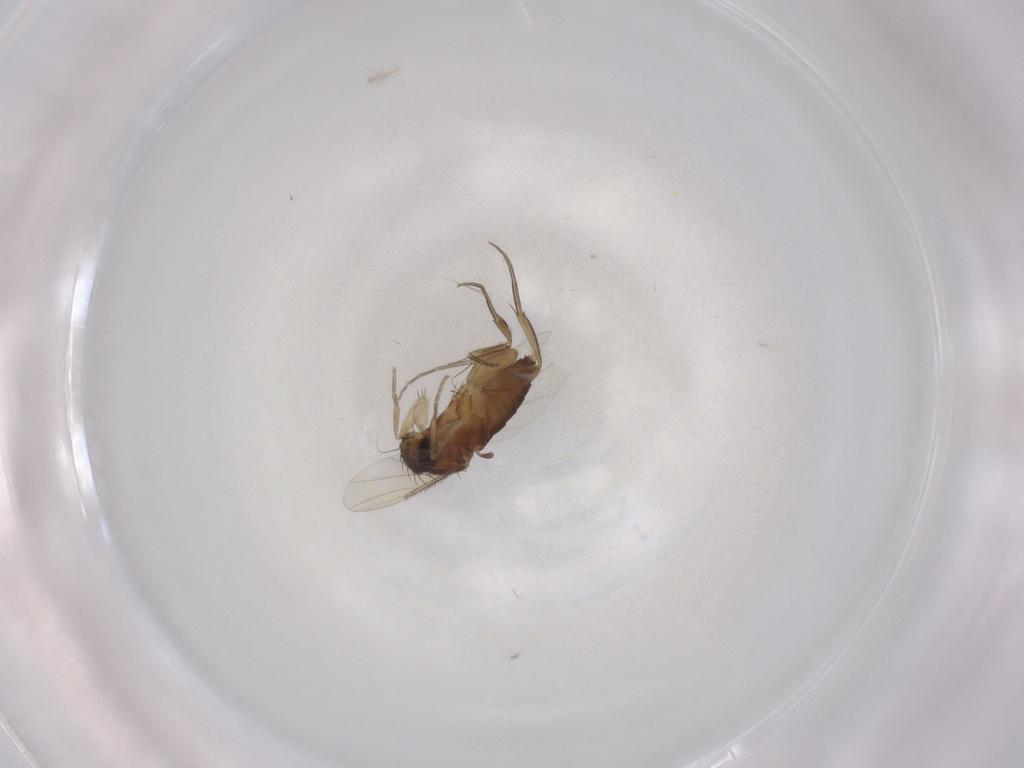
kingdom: Animalia
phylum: Arthropoda
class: Insecta
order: Diptera
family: Phoridae
